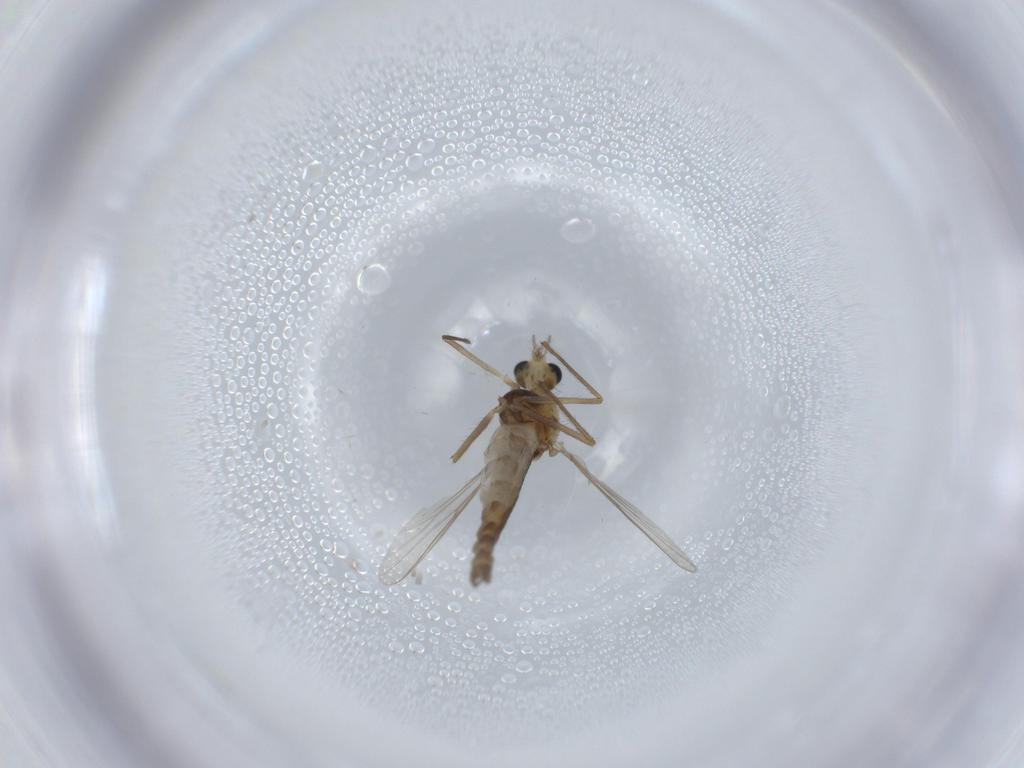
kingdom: Animalia
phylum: Arthropoda
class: Insecta
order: Diptera
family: Chironomidae
